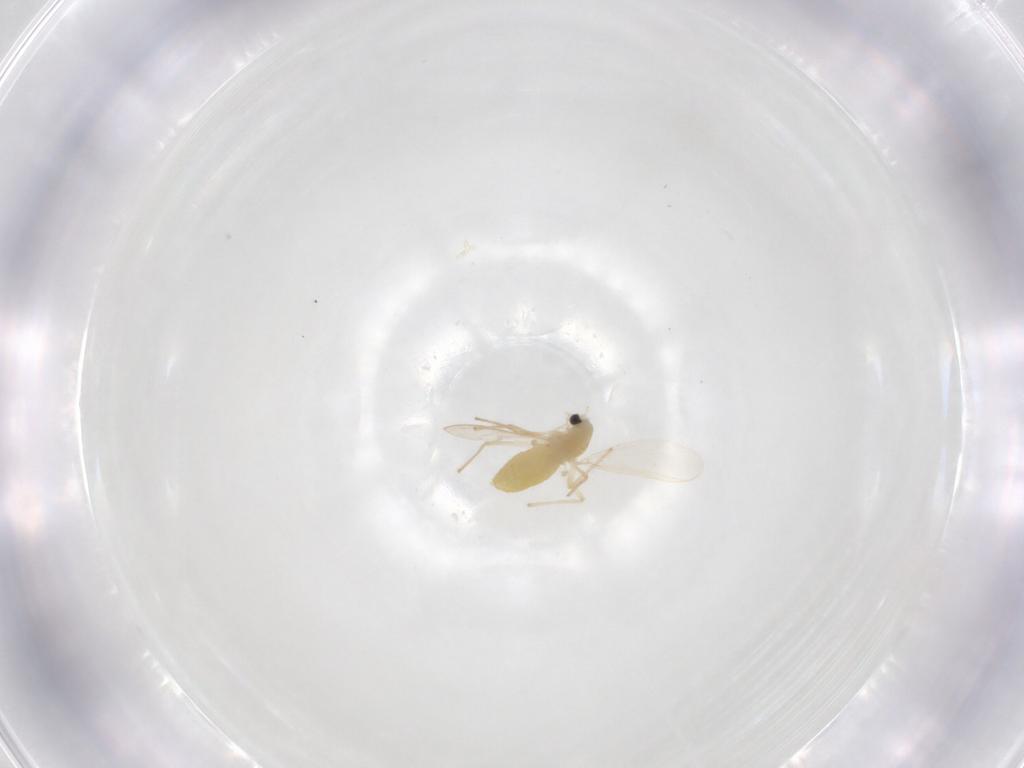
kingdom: Animalia
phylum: Arthropoda
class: Insecta
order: Diptera
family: Chironomidae
